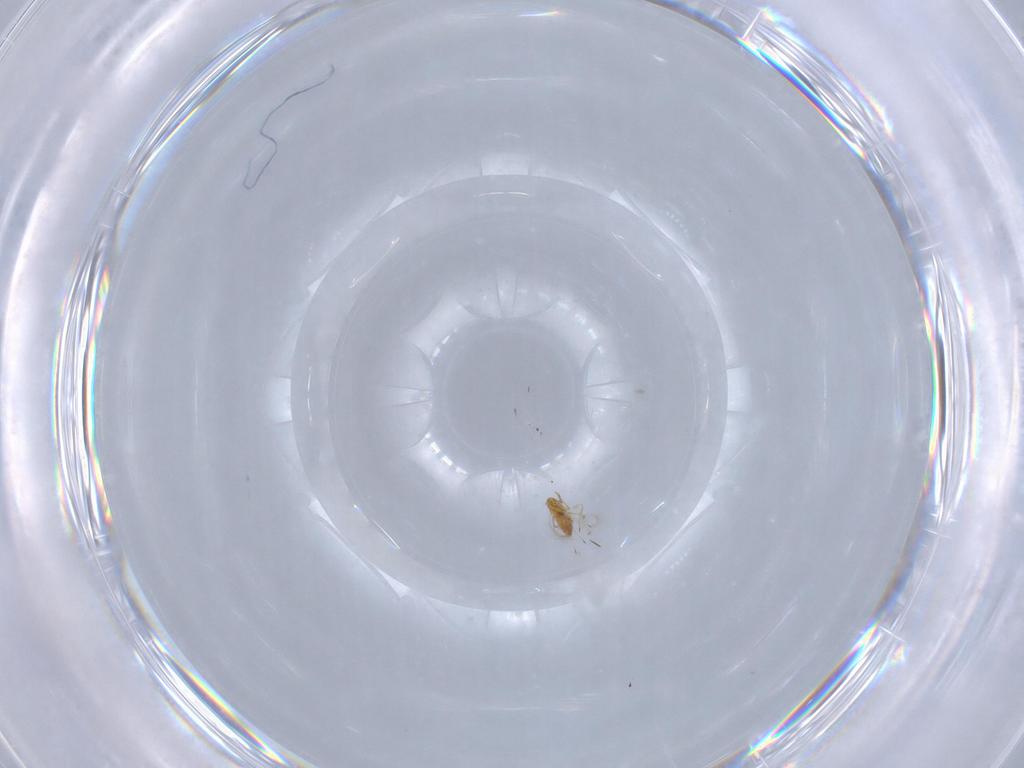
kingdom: Animalia
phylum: Arthropoda
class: Insecta
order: Hymenoptera
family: Trichogrammatidae
